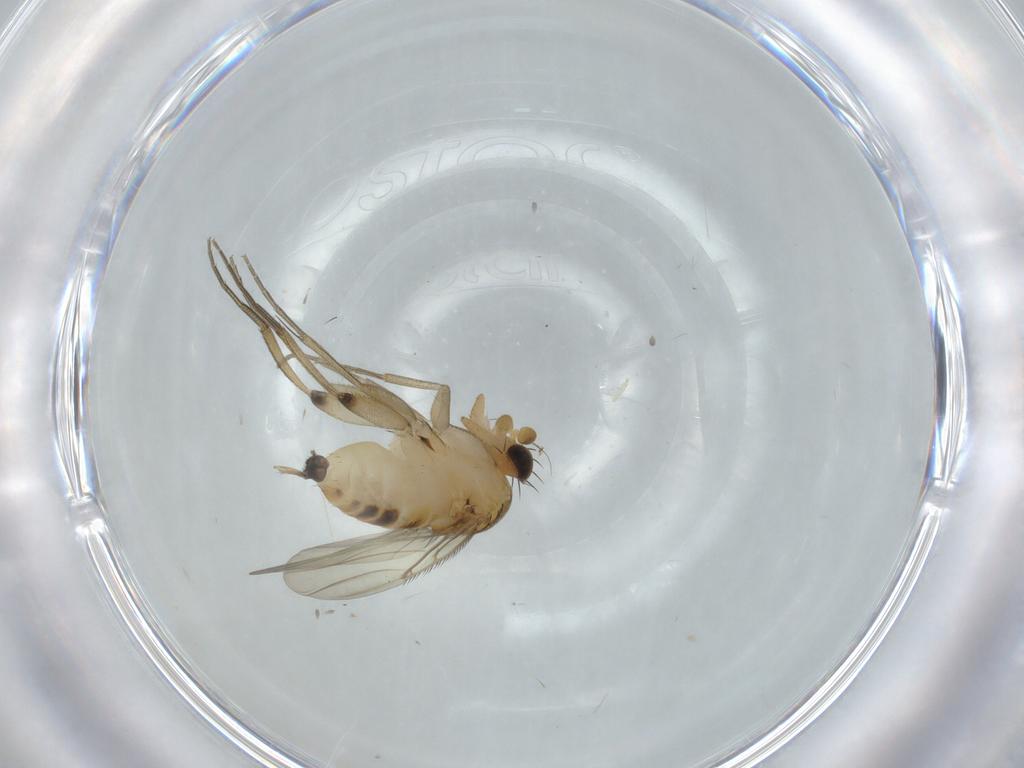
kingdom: Animalia
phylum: Arthropoda
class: Insecta
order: Diptera
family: Phoridae
